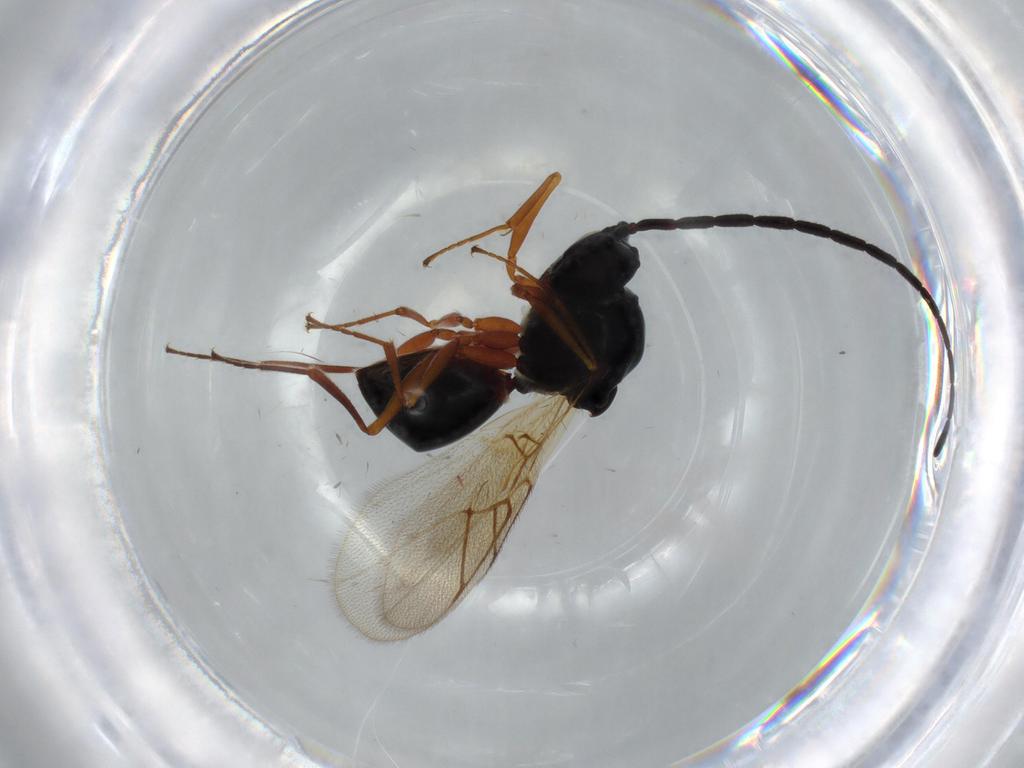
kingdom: Animalia
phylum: Arthropoda
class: Insecta
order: Hymenoptera
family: Figitidae
